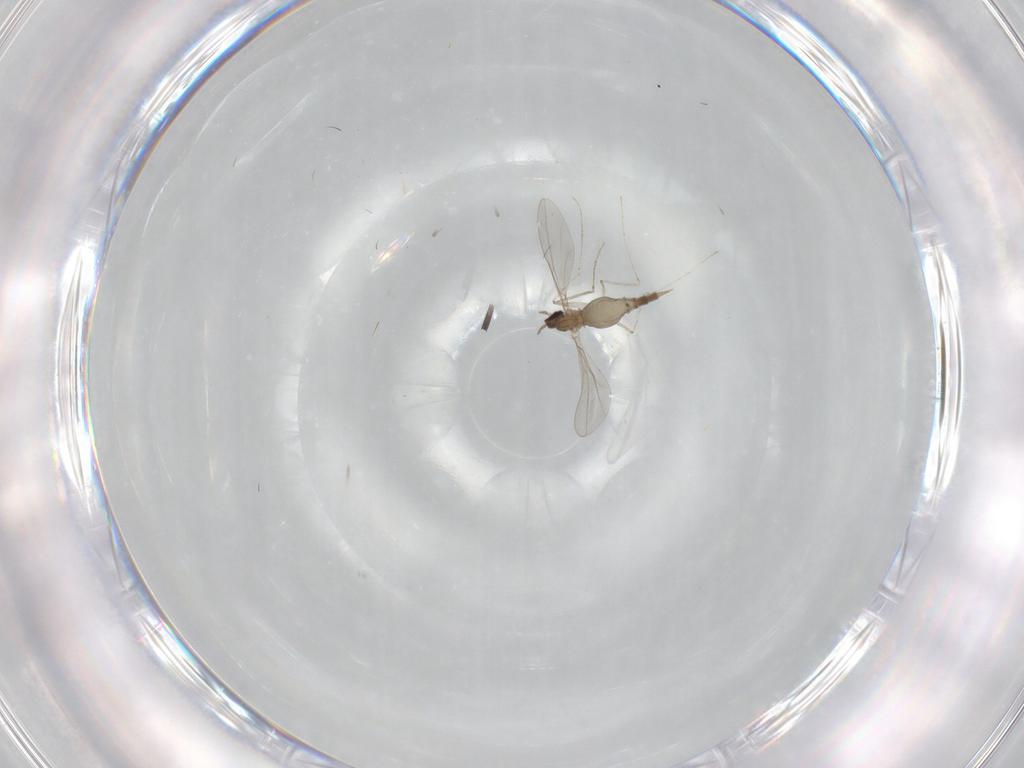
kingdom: Animalia
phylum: Arthropoda
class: Insecta
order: Diptera
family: Cecidomyiidae
